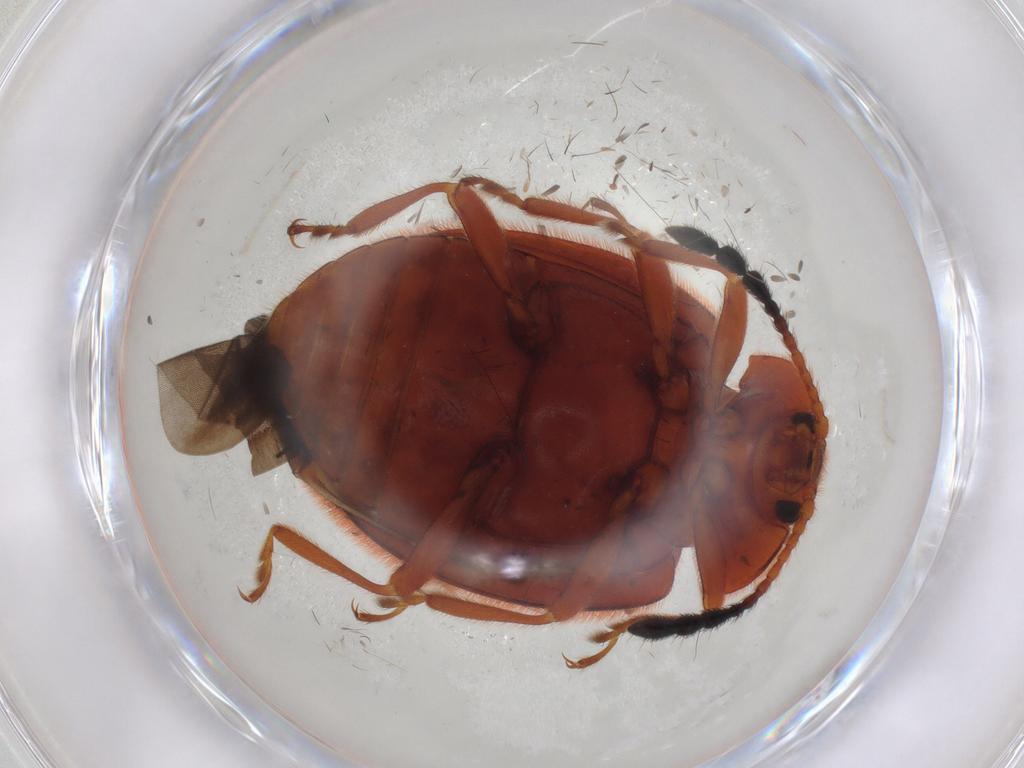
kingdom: Animalia
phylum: Arthropoda
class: Insecta
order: Coleoptera
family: Endomychidae
